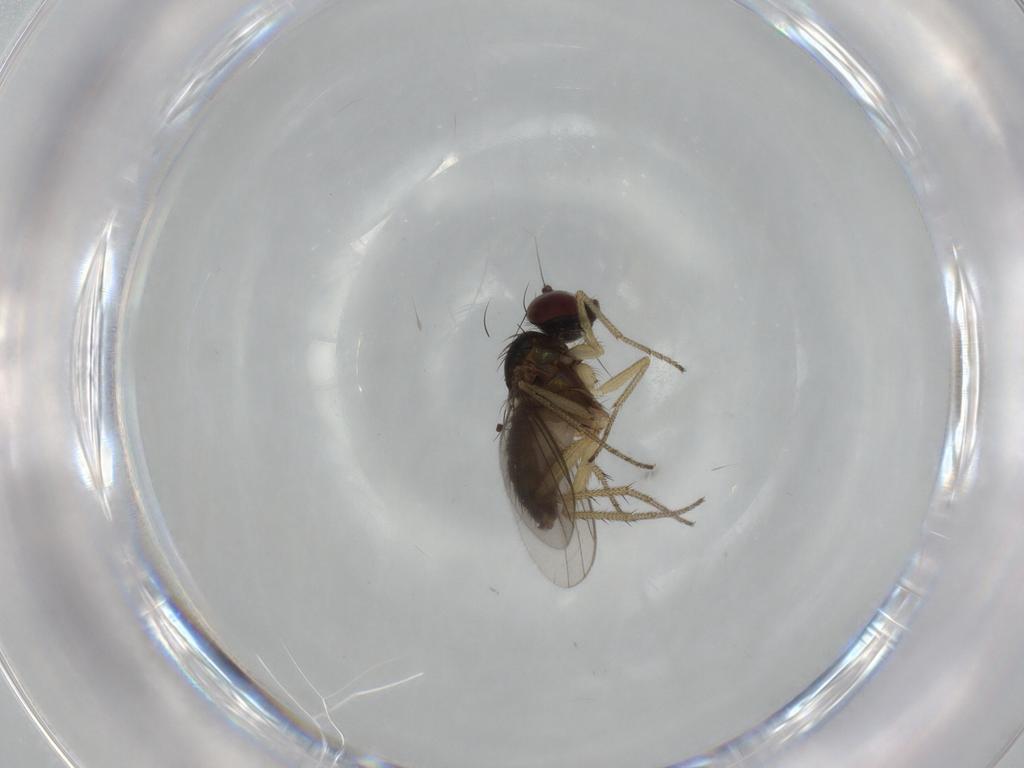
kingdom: Animalia
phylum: Arthropoda
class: Insecta
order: Diptera
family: Dolichopodidae
